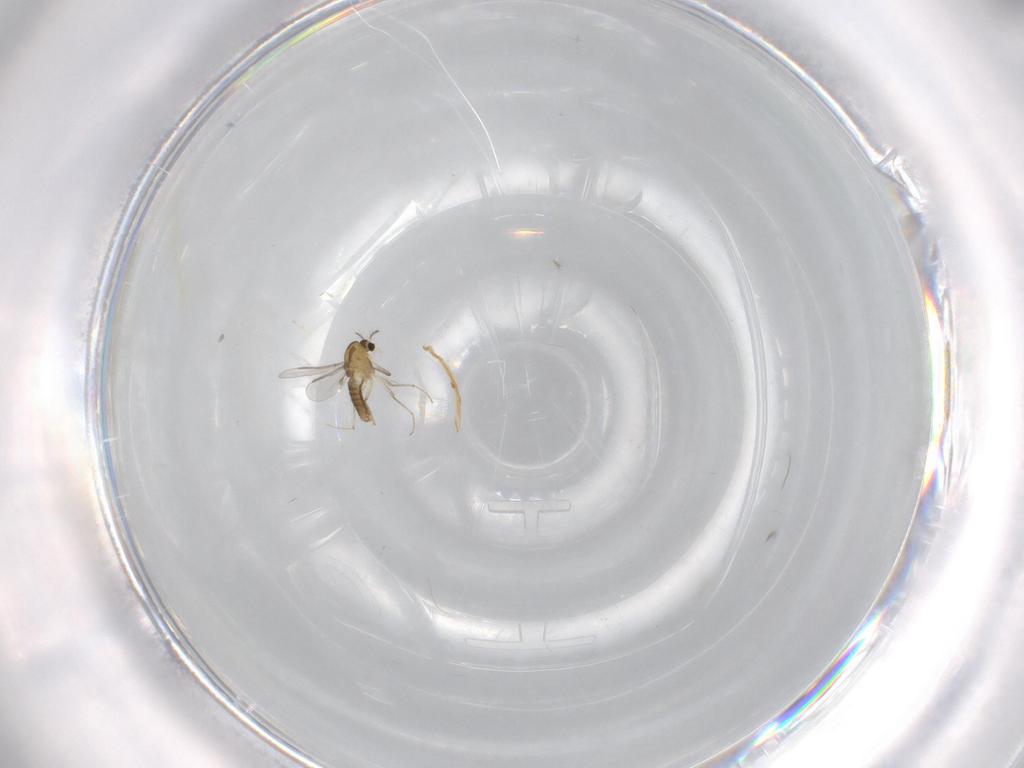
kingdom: Animalia
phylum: Arthropoda
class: Insecta
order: Diptera
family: Chironomidae
